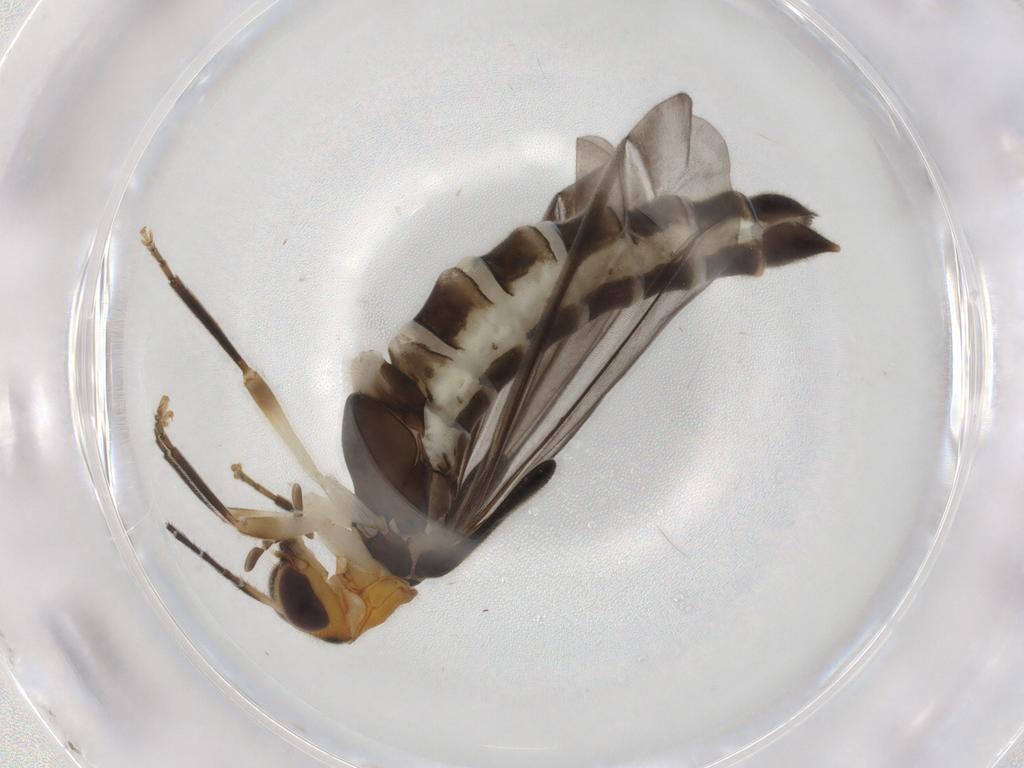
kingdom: Animalia
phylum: Arthropoda
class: Insecta
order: Coleoptera
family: Cantharidae
